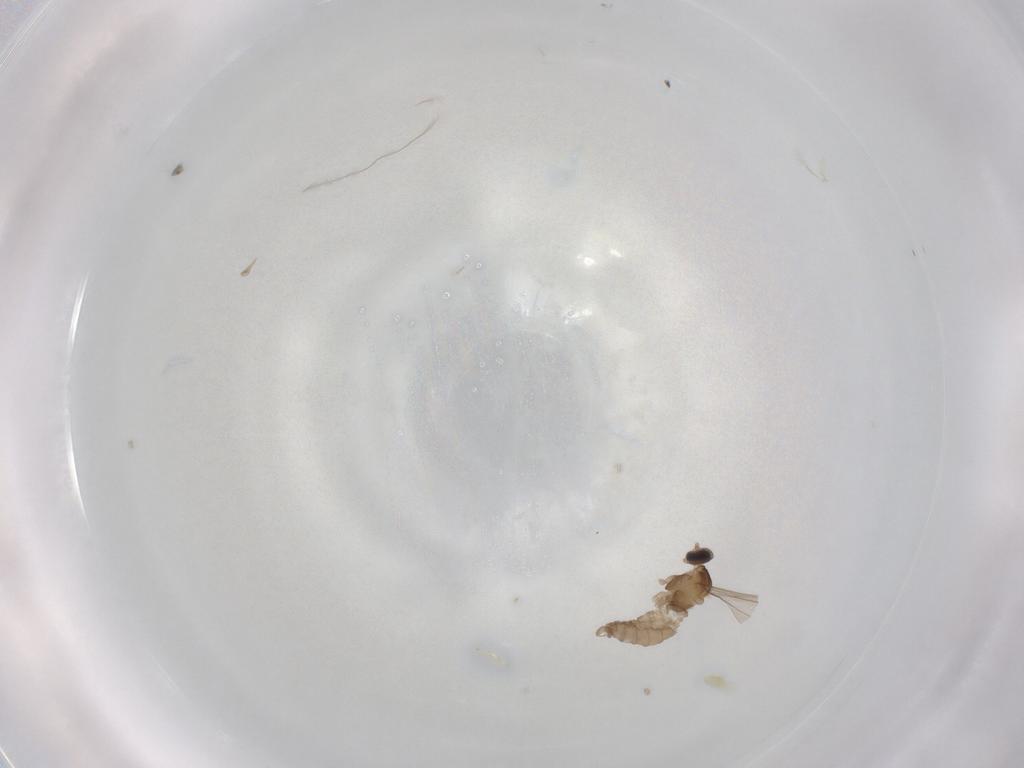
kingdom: Animalia
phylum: Arthropoda
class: Insecta
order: Diptera
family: Cecidomyiidae
